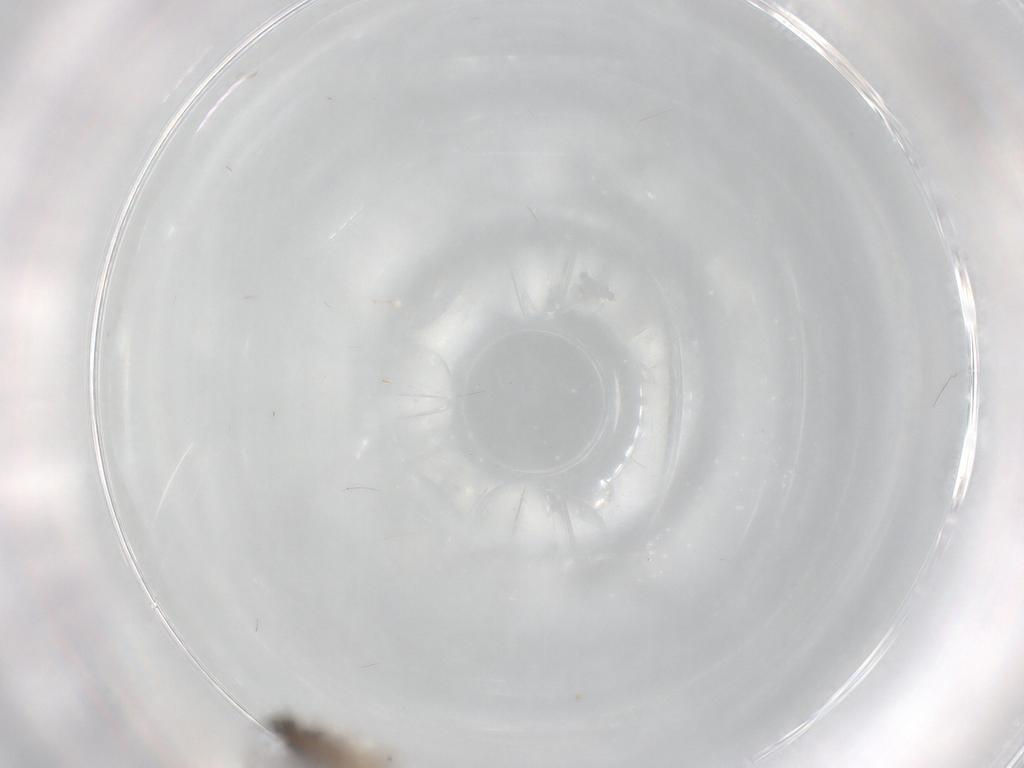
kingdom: Animalia
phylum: Arthropoda
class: Insecta
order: Diptera
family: Cecidomyiidae
